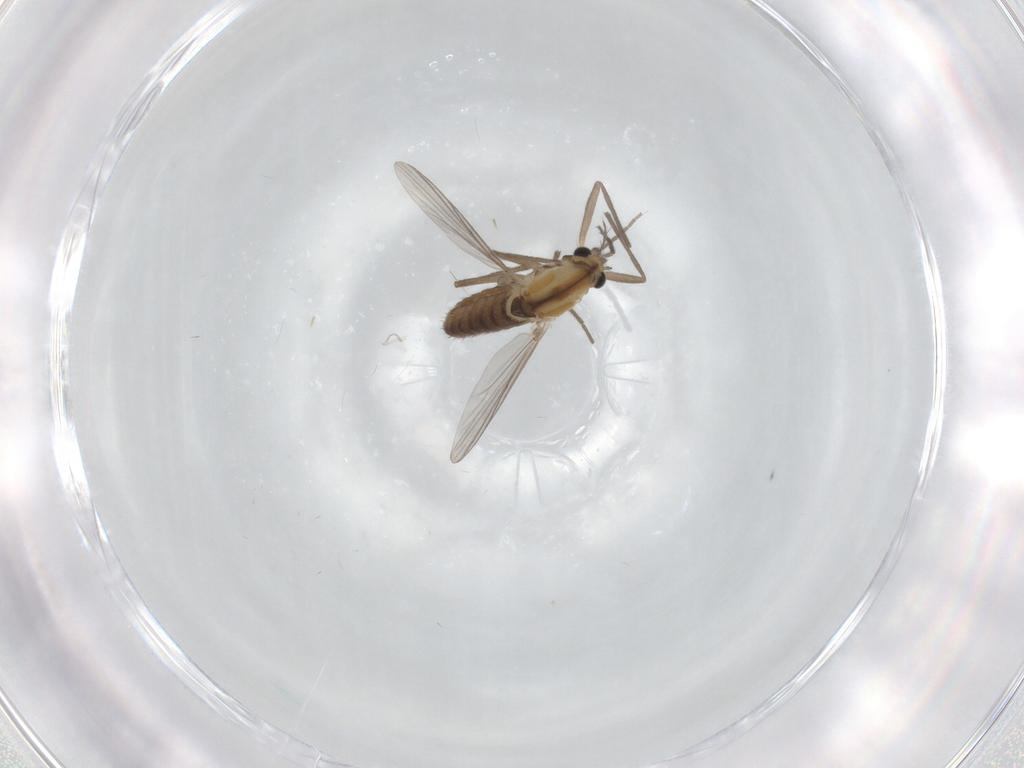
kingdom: Animalia
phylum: Arthropoda
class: Insecta
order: Diptera
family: Chironomidae
